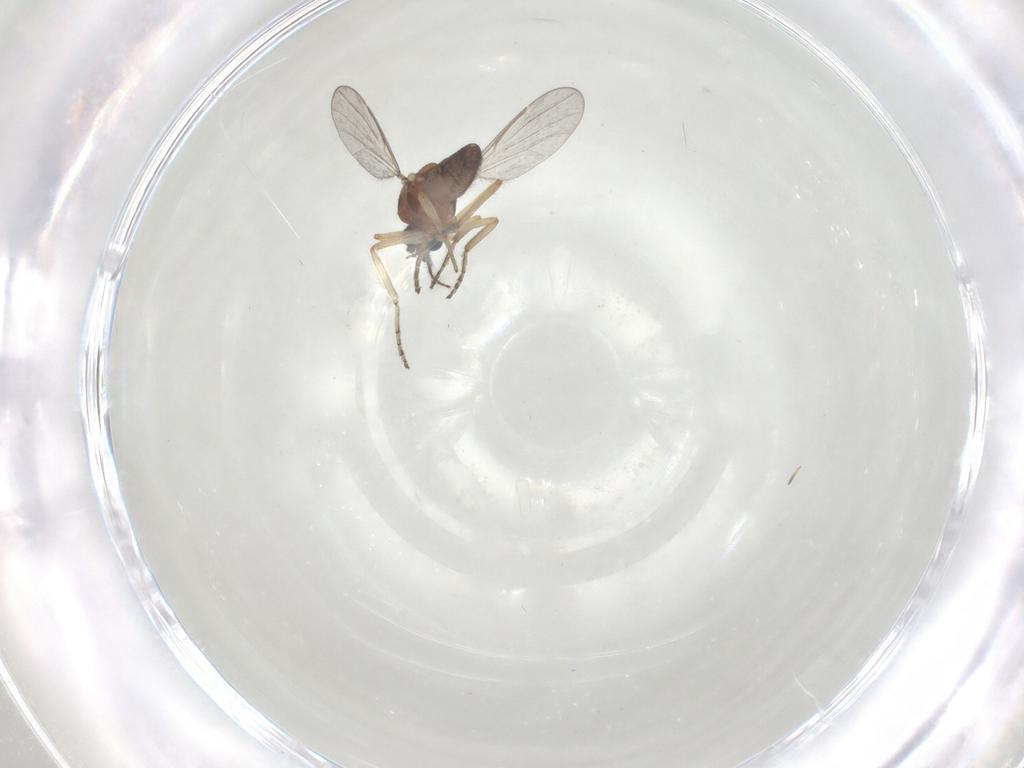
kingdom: Animalia
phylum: Arthropoda
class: Insecta
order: Diptera
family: Ceratopogonidae
